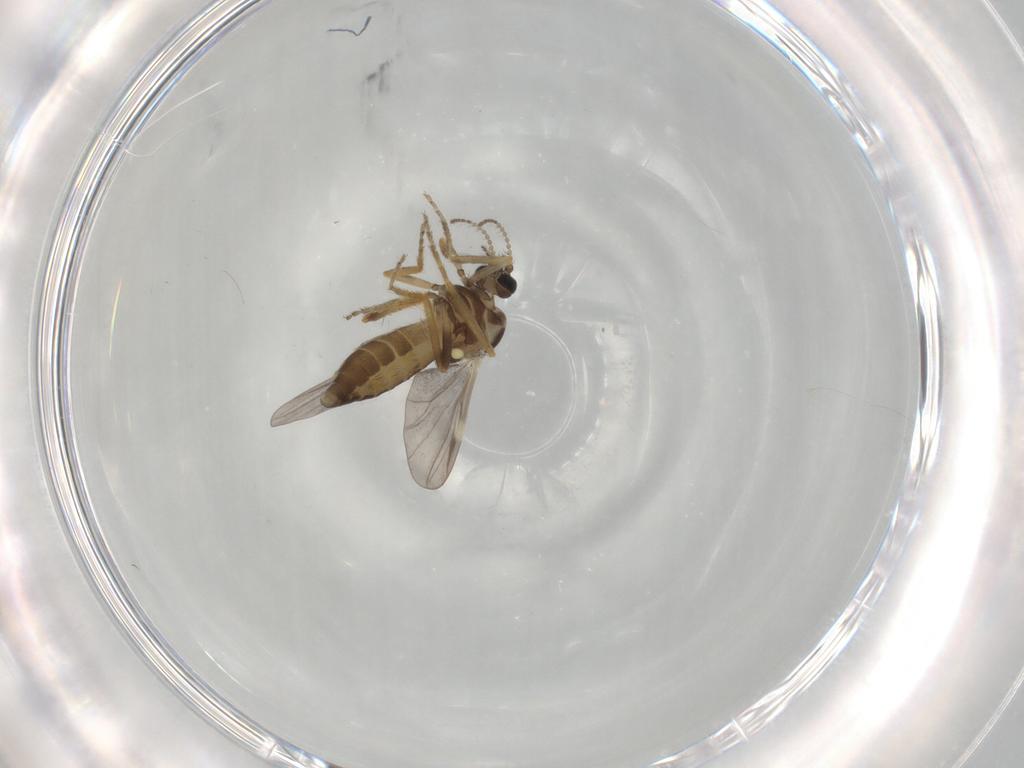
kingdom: Animalia
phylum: Arthropoda
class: Insecta
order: Diptera
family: Ceratopogonidae
